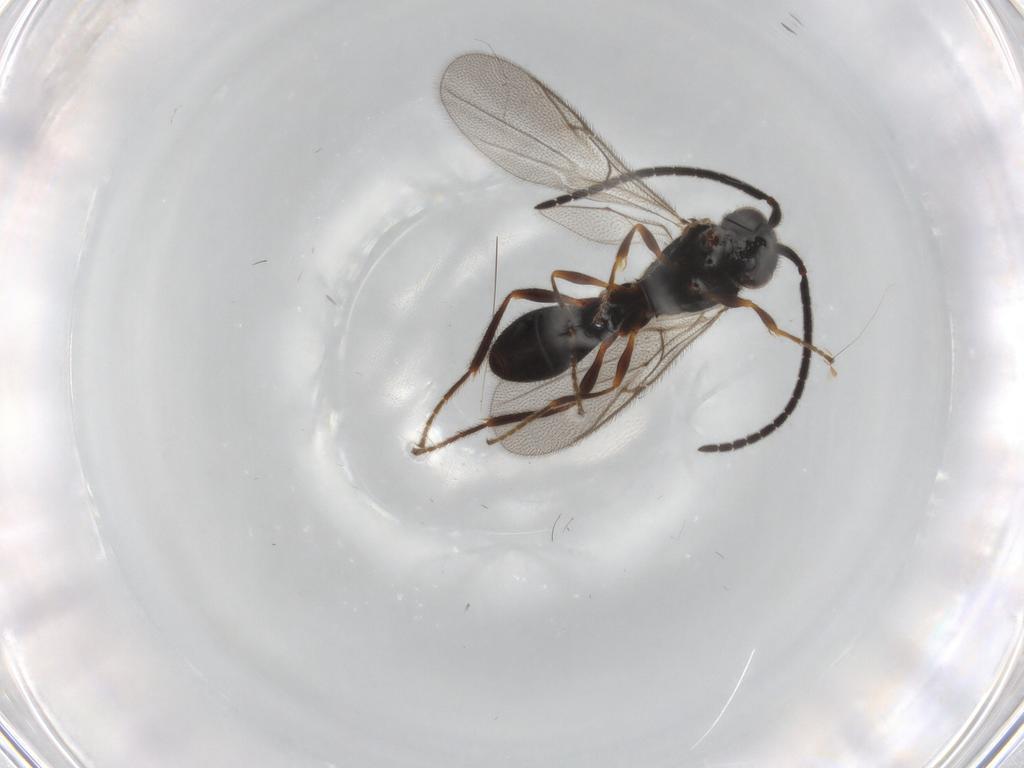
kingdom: Animalia
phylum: Arthropoda
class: Insecta
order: Hymenoptera
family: Diapriidae
